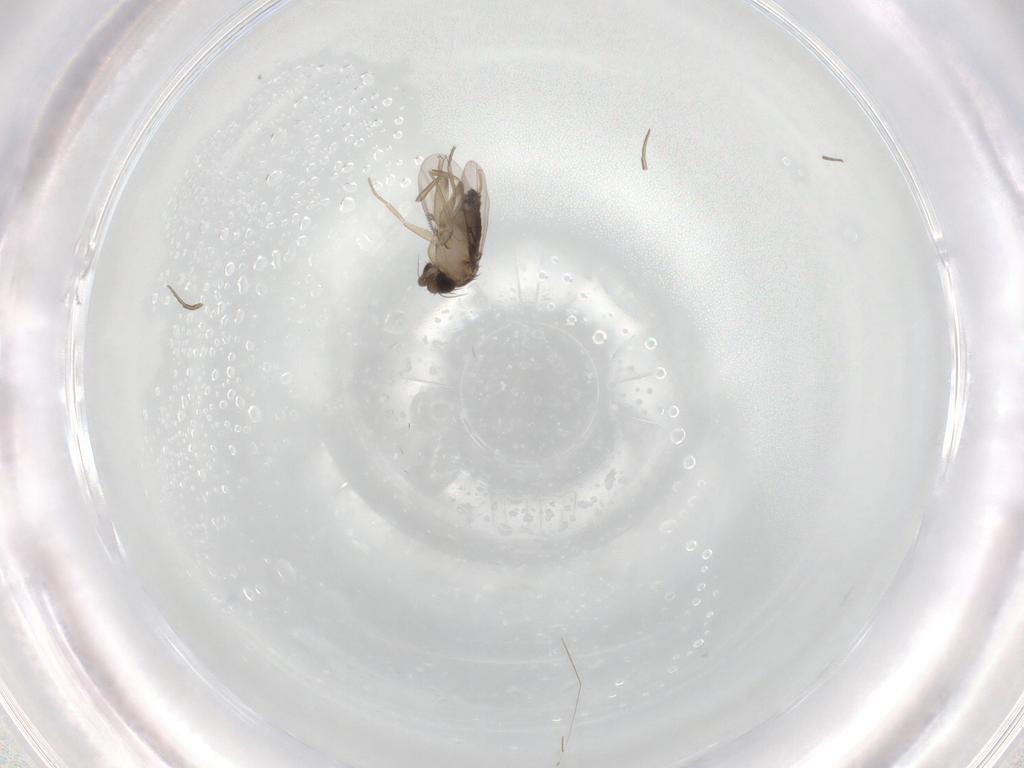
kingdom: Animalia
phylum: Arthropoda
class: Insecta
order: Diptera
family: Phoridae
